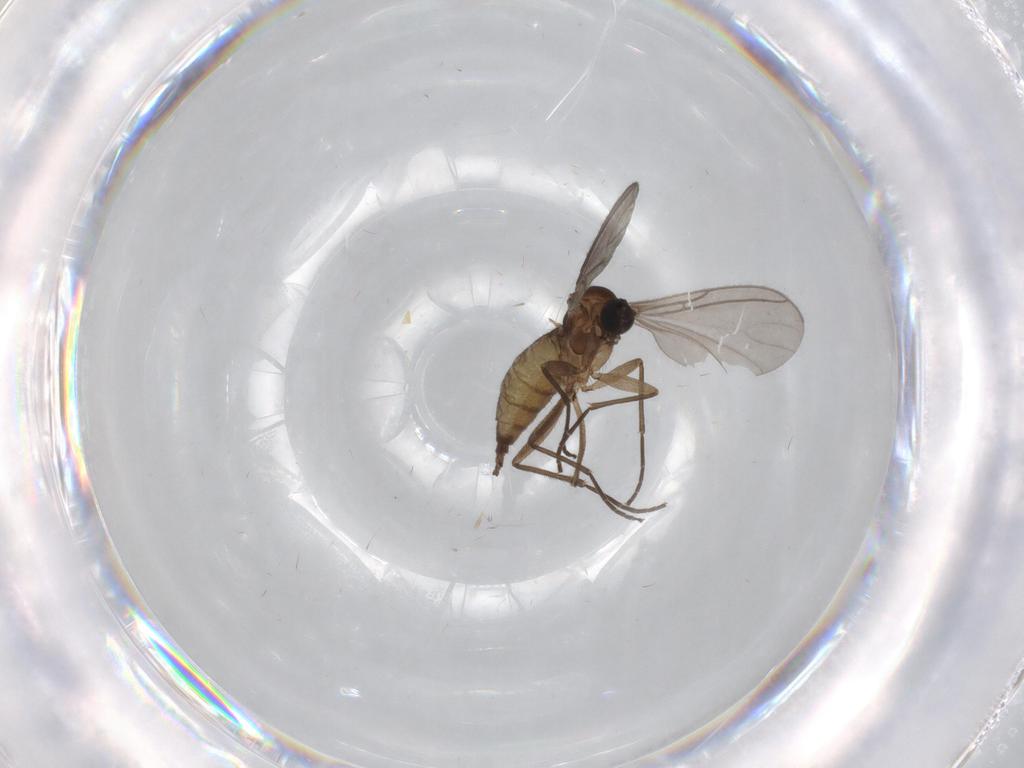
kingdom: Animalia
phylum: Arthropoda
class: Insecta
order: Diptera
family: Sciaridae
